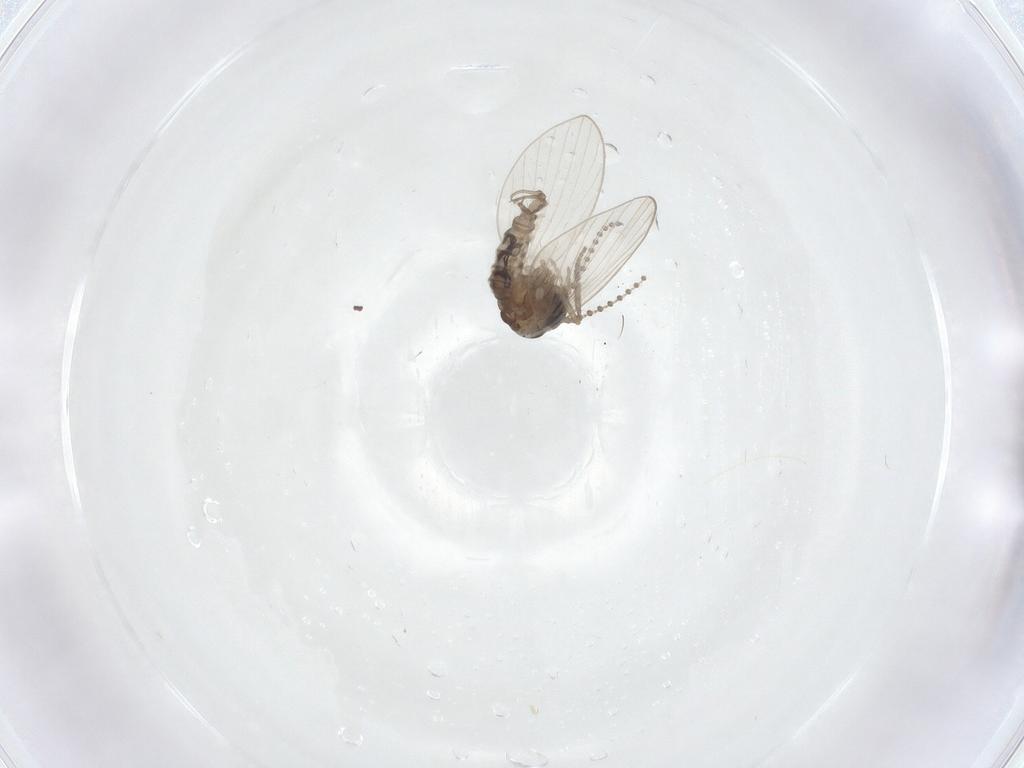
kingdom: Animalia
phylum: Arthropoda
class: Insecta
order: Diptera
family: Psychodidae
